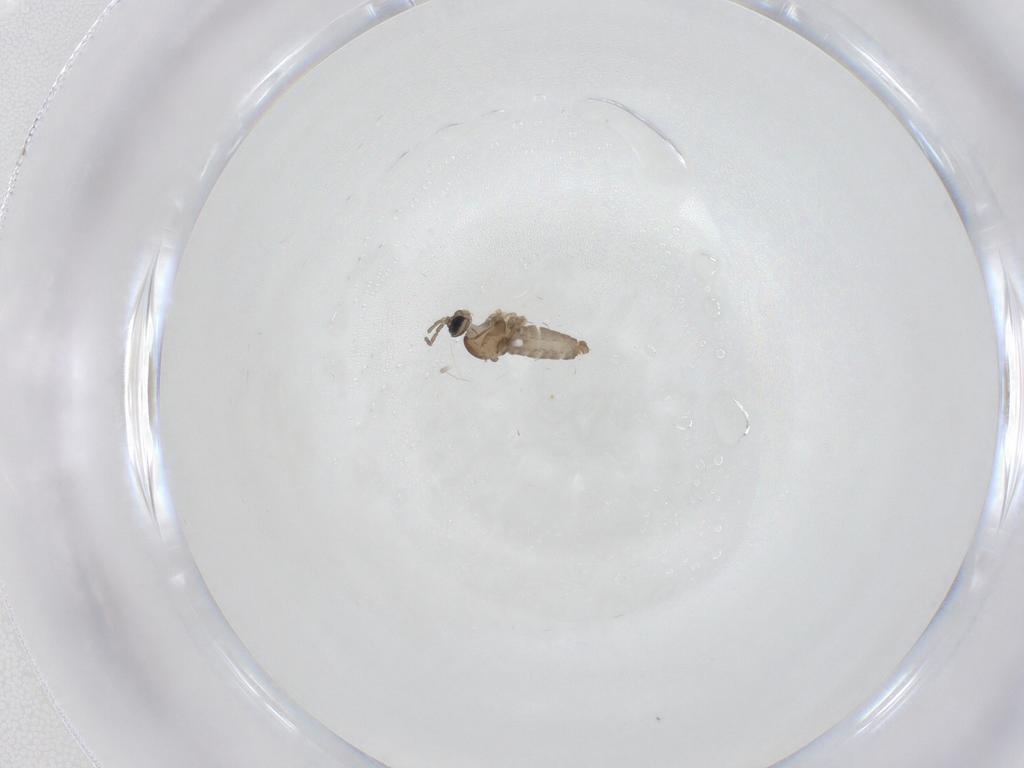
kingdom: Animalia
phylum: Arthropoda
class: Insecta
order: Diptera
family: Cecidomyiidae
